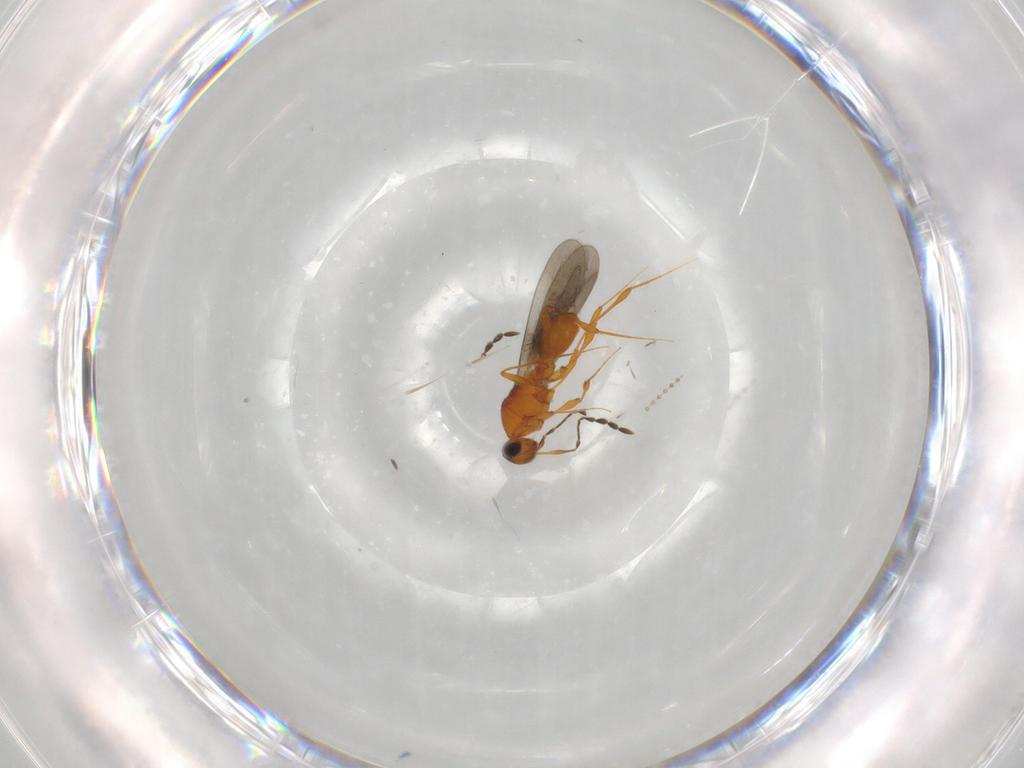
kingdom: Animalia
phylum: Arthropoda
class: Insecta
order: Hymenoptera
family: Platygastridae
